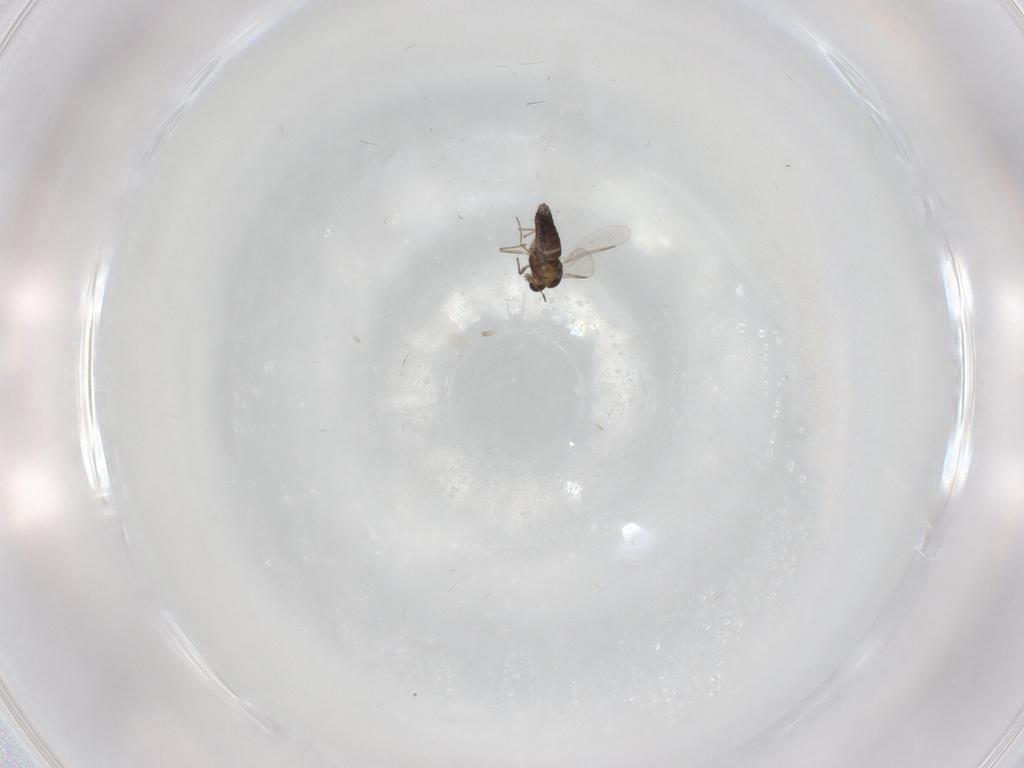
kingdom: Animalia
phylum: Arthropoda
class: Insecta
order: Diptera
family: Chironomidae
